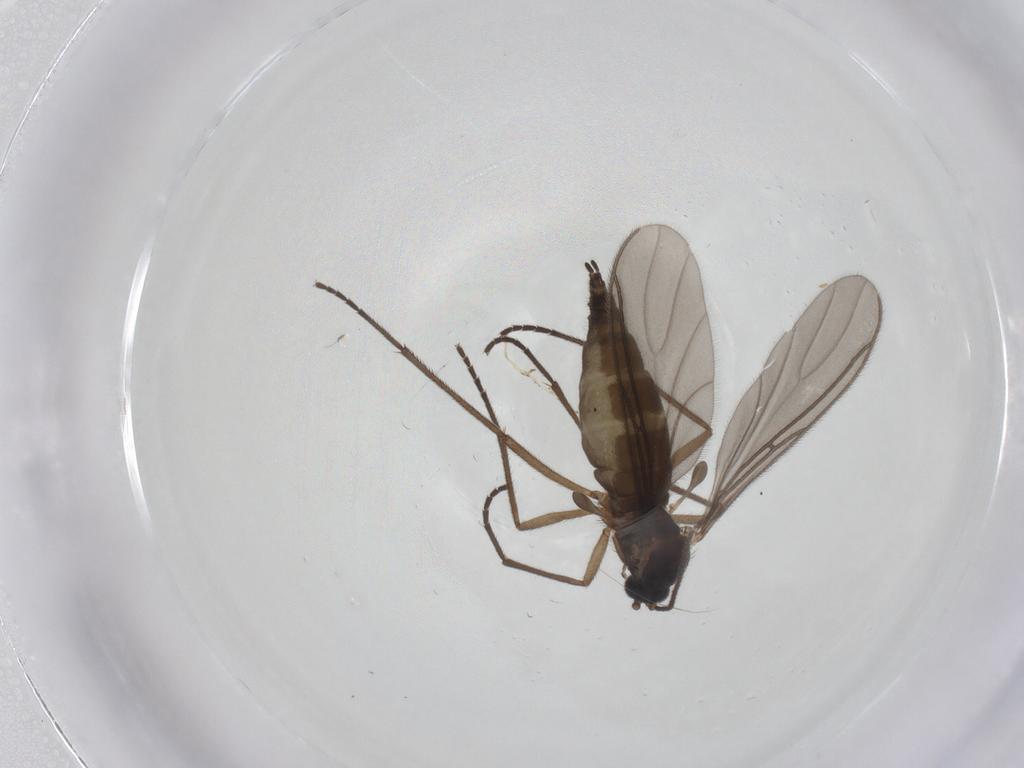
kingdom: Animalia
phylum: Arthropoda
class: Insecta
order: Diptera
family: Sciaridae
